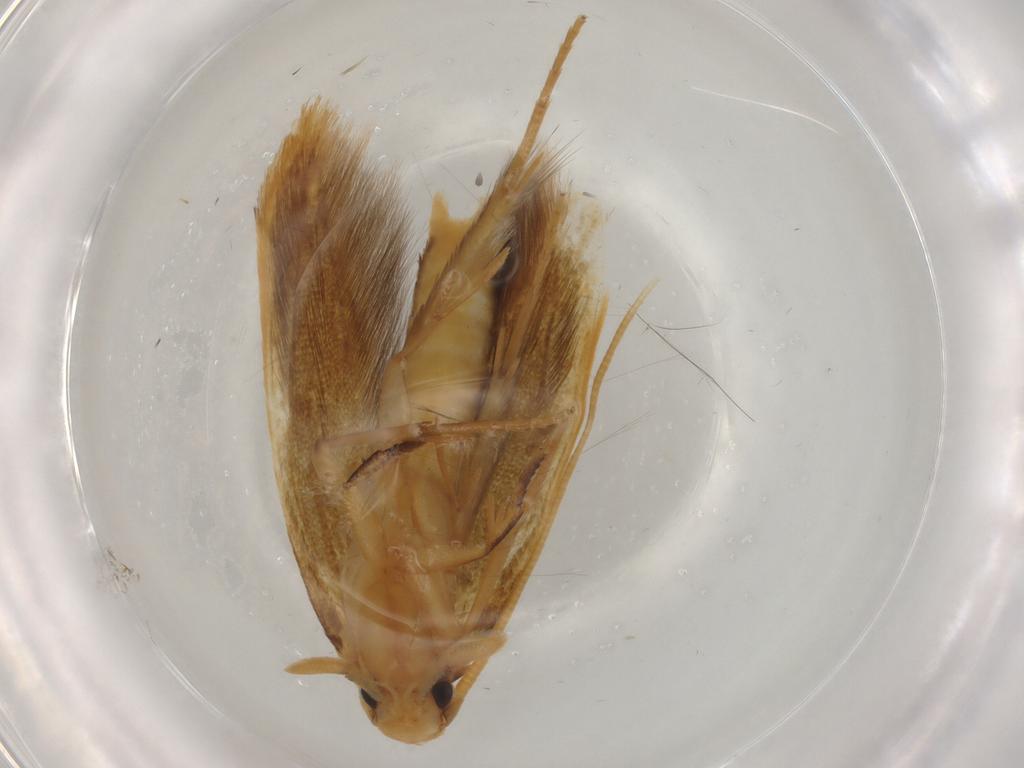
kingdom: Animalia
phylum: Arthropoda
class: Insecta
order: Lepidoptera
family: Tineidae
